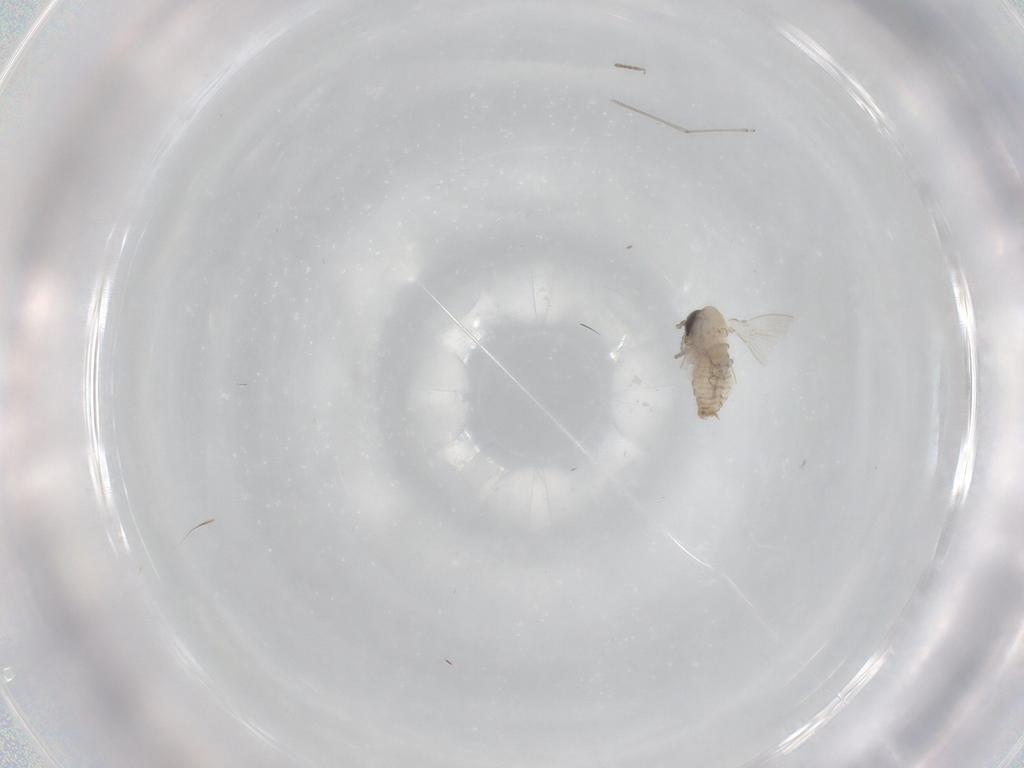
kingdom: Animalia
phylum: Arthropoda
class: Insecta
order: Diptera
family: Psychodidae
